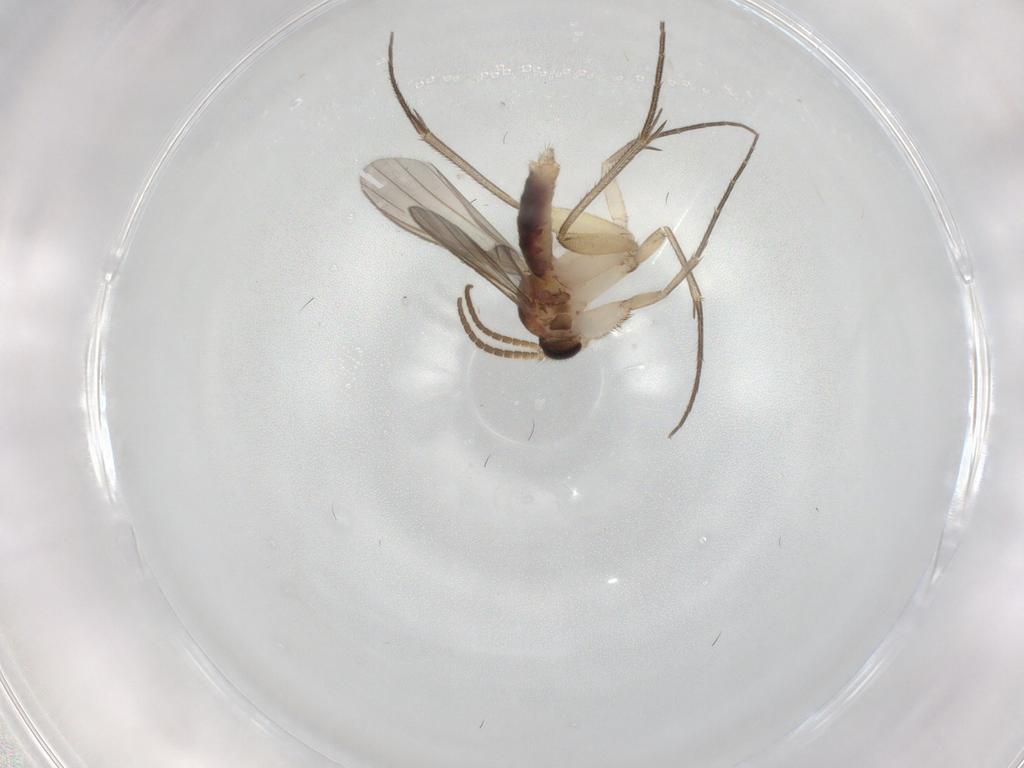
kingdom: Animalia
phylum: Arthropoda
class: Insecta
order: Diptera
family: Mycetophilidae
